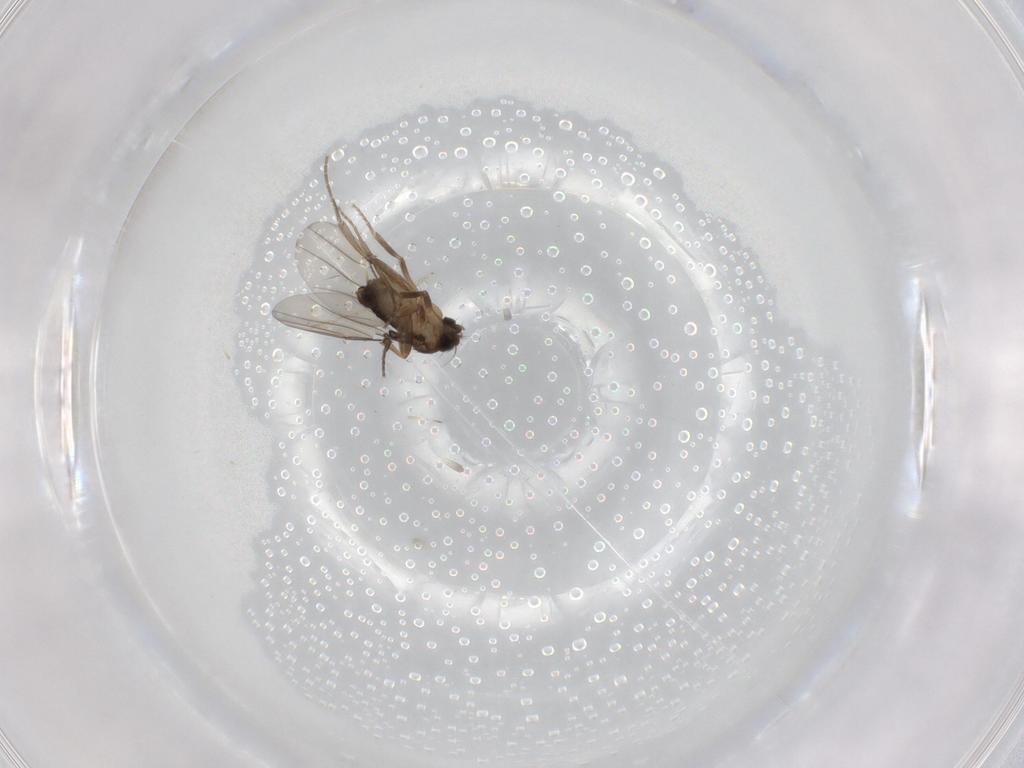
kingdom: Animalia
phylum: Arthropoda
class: Insecta
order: Diptera
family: Phoridae
